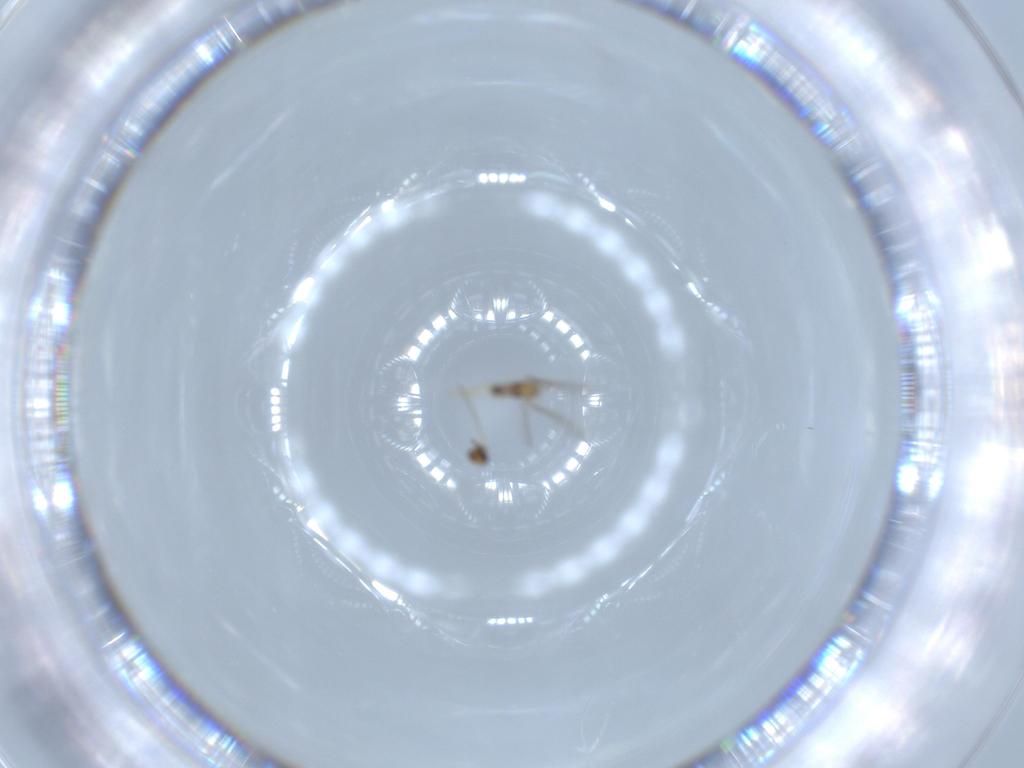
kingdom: Animalia
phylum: Arthropoda
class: Insecta
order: Hymenoptera
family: Mymaridae
